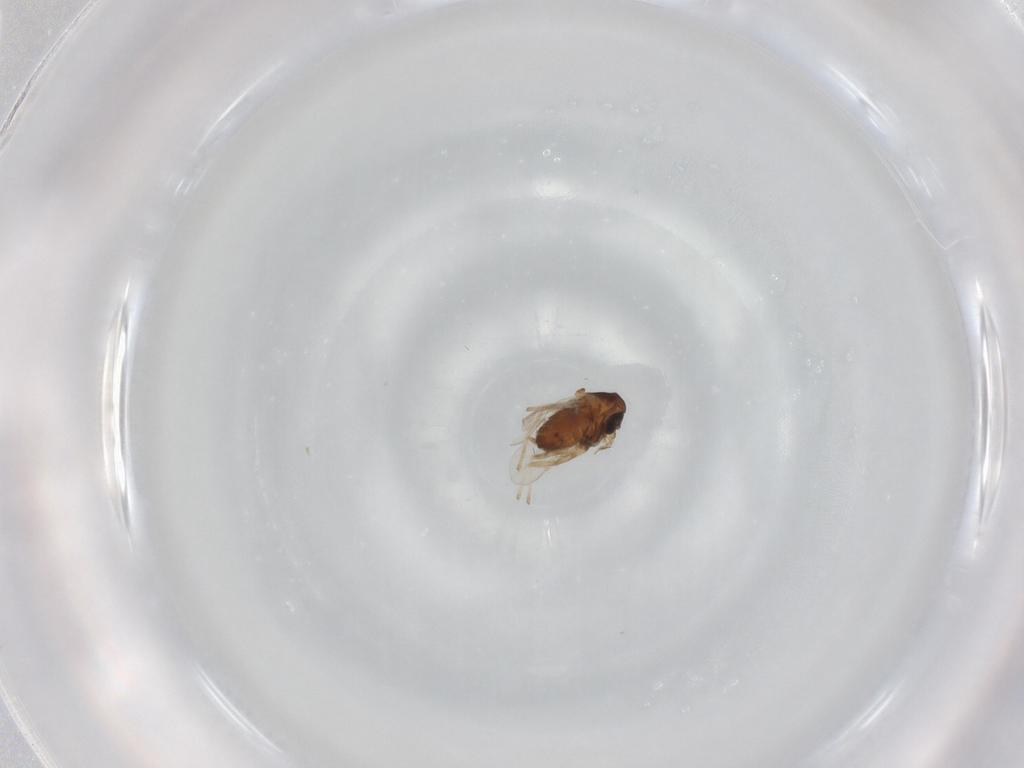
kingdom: Animalia
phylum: Arthropoda
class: Insecta
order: Diptera
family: Chironomidae
